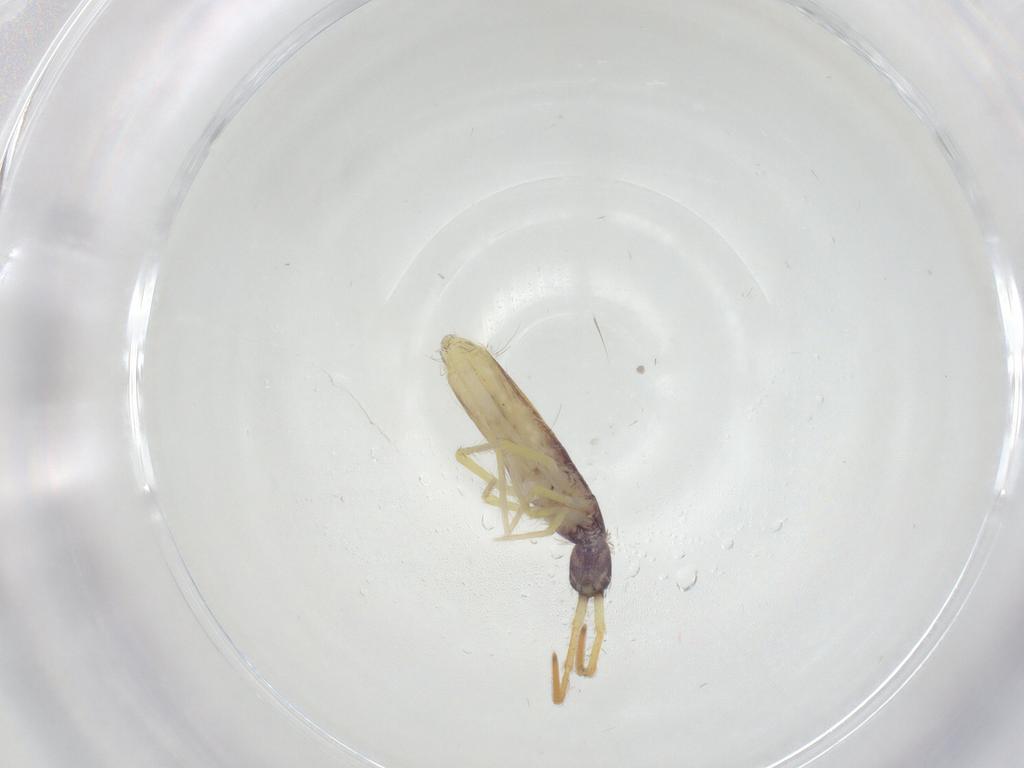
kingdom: Animalia
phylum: Arthropoda
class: Collembola
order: Entomobryomorpha
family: Entomobryidae
